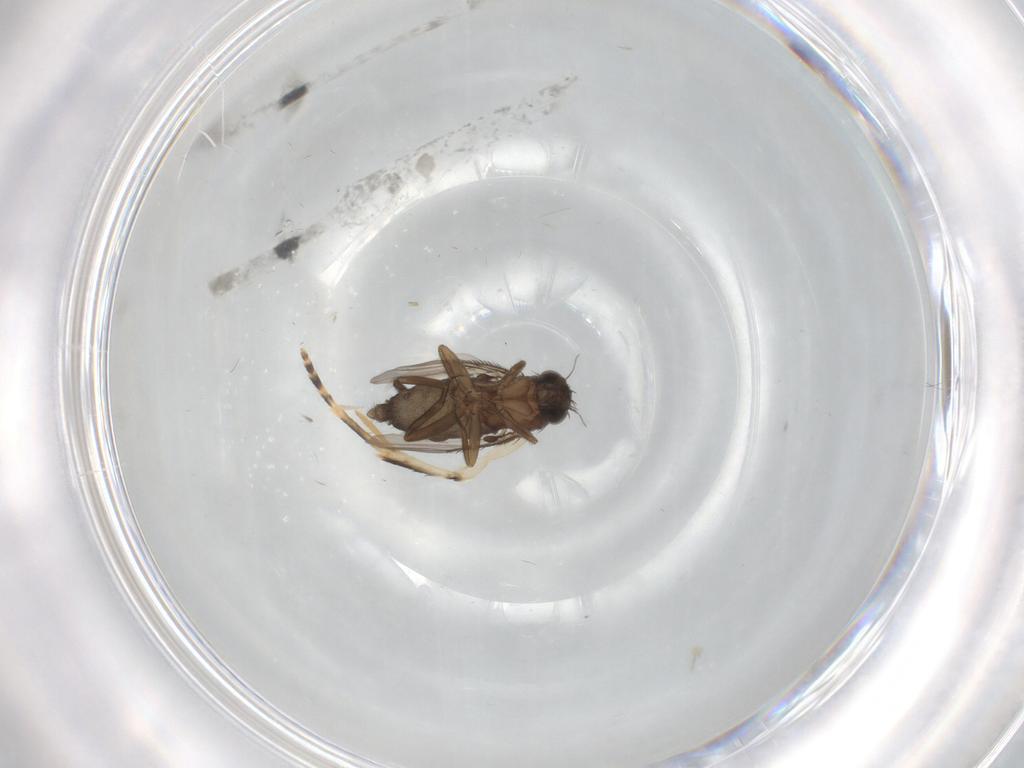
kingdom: Animalia
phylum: Arthropoda
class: Insecta
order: Diptera
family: Phoridae
